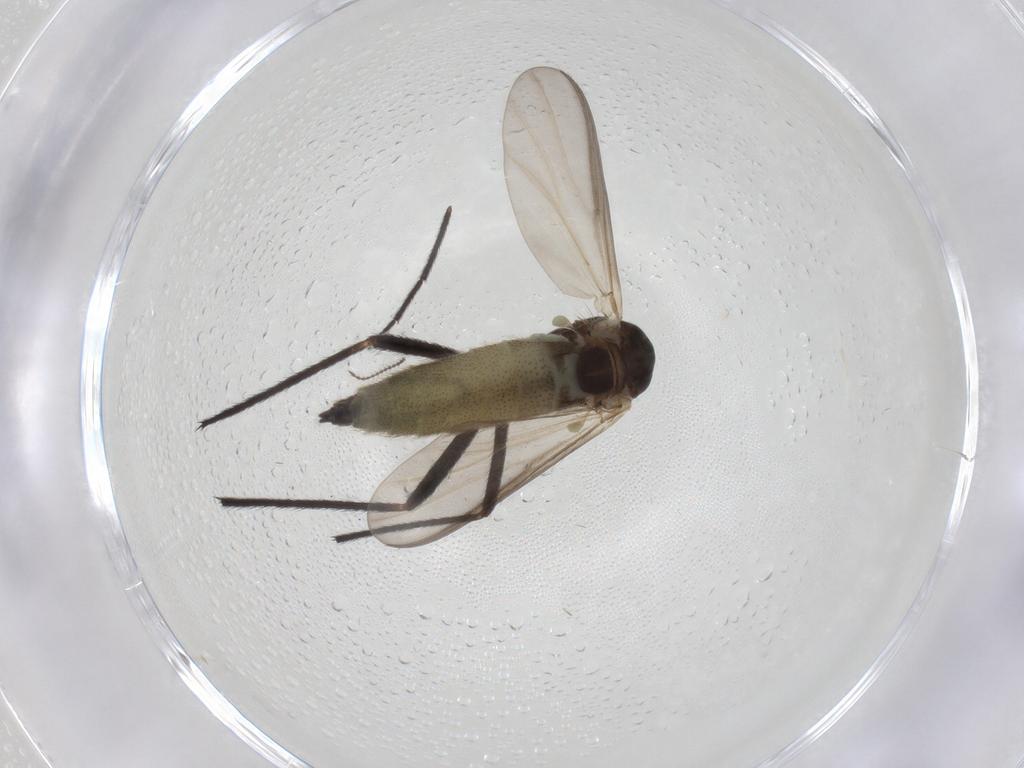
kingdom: Animalia
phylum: Arthropoda
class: Insecta
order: Diptera
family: Chironomidae
